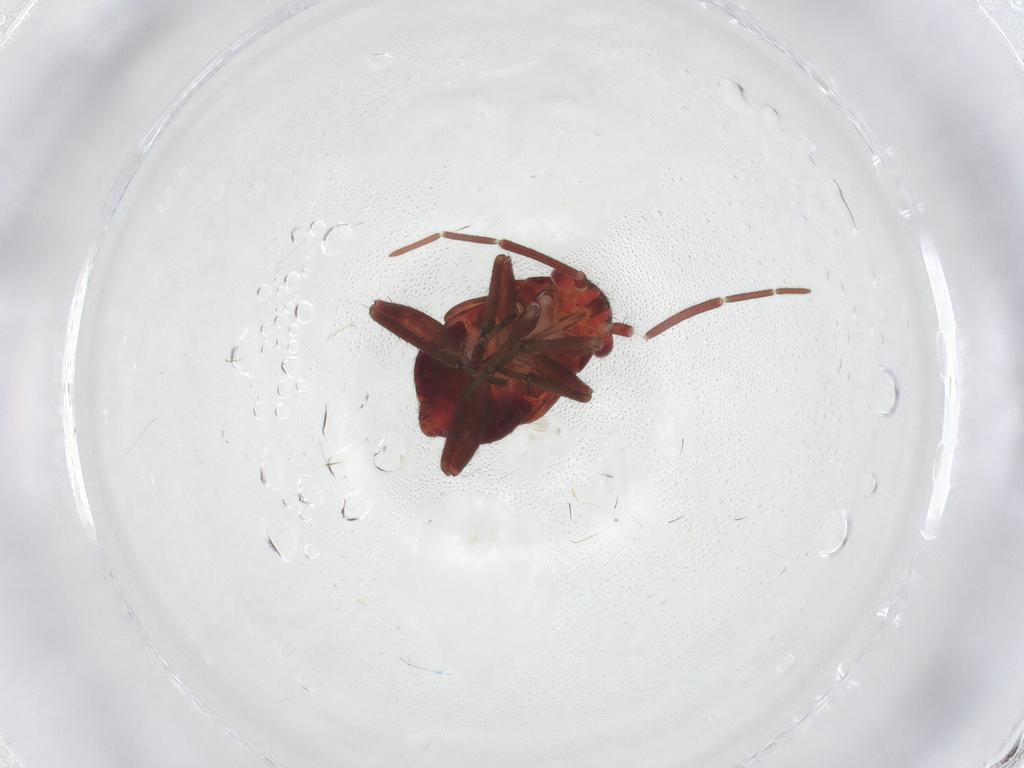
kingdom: Animalia
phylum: Arthropoda
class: Insecta
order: Hemiptera
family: Miridae
